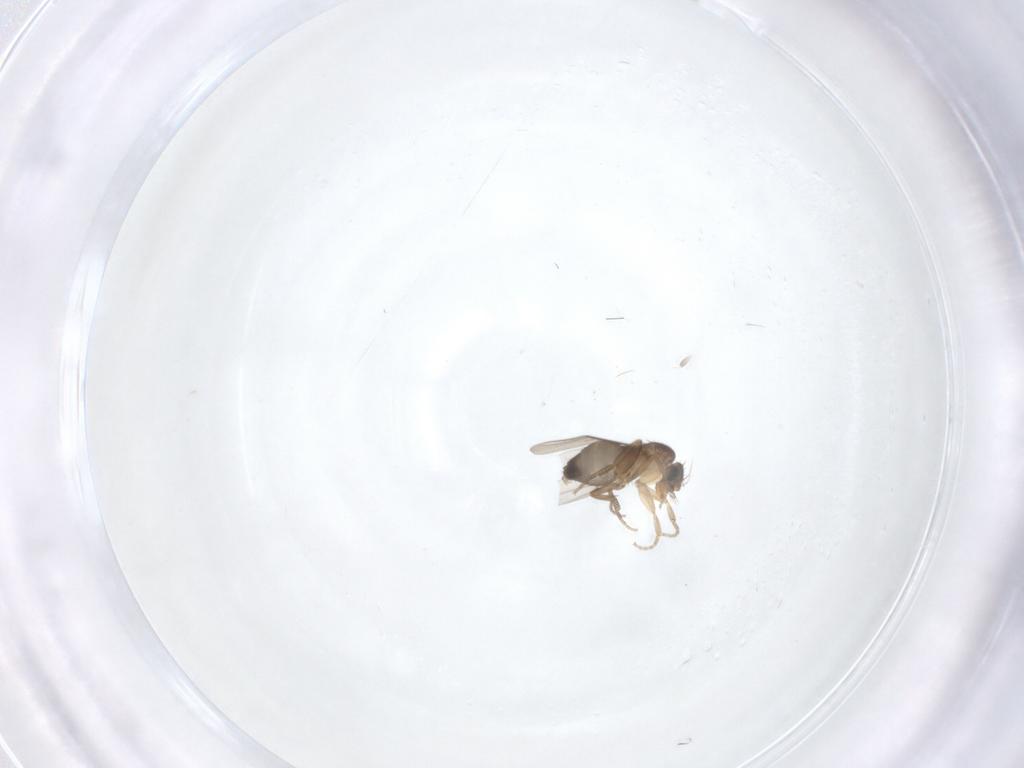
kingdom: Animalia
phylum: Arthropoda
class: Insecta
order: Diptera
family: Phoridae
